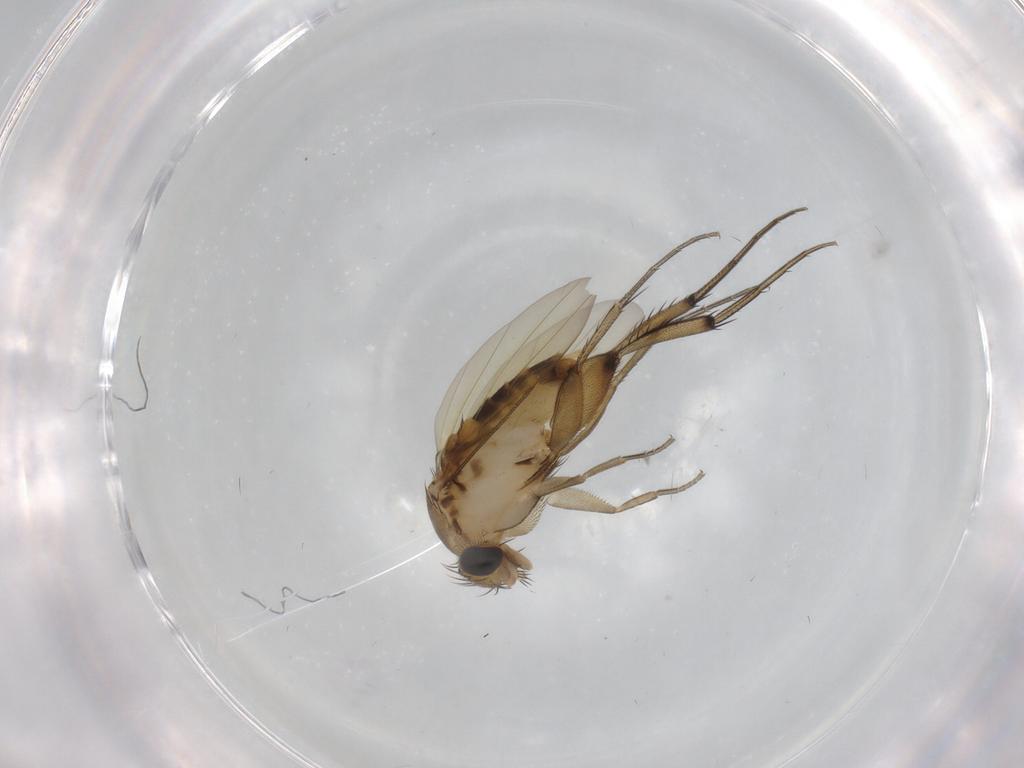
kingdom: Animalia
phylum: Arthropoda
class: Insecta
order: Diptera
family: Phoridae
